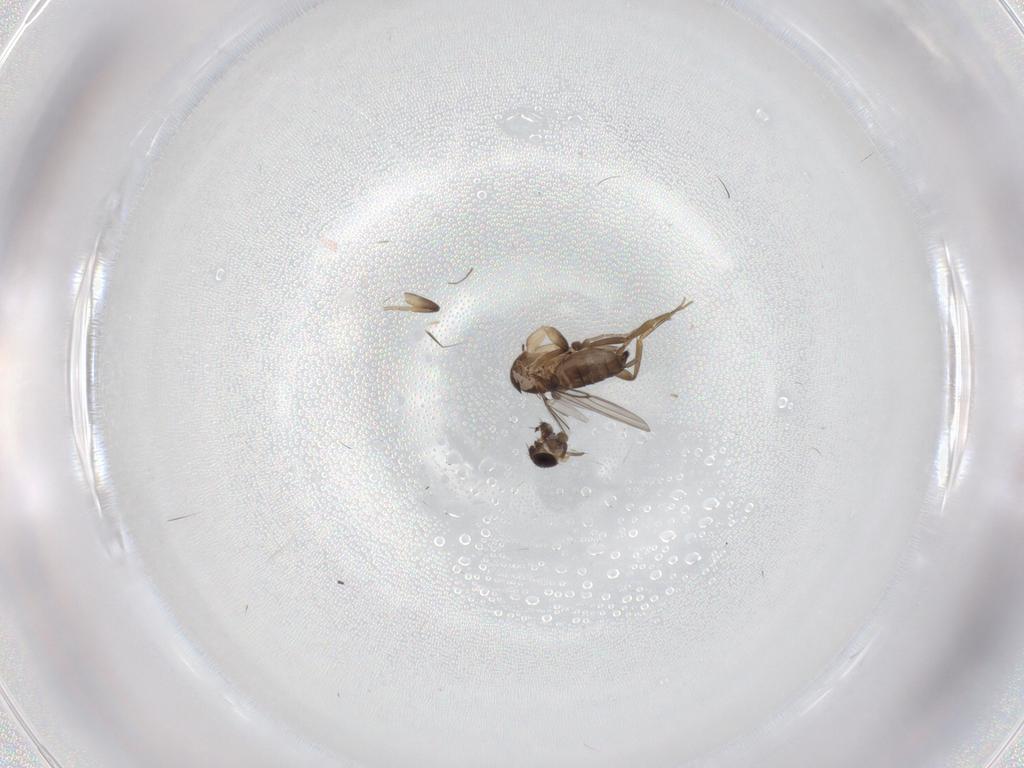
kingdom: Animalia
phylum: Arthropoda
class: Insecta
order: Diptera
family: Phoridae
